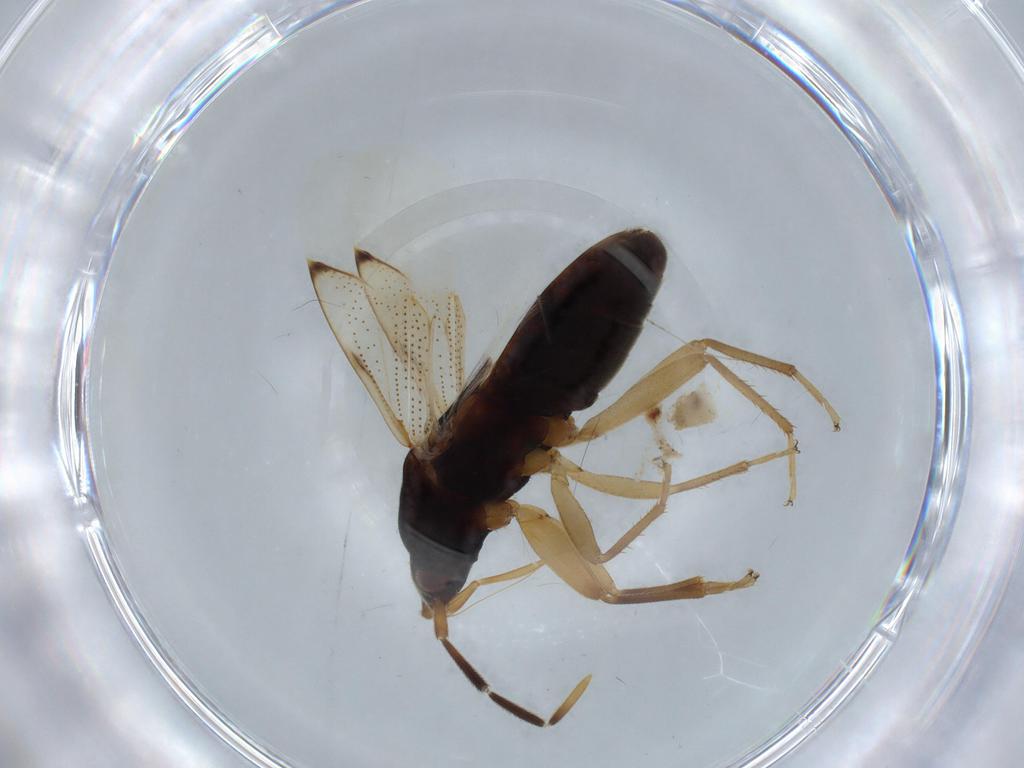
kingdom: Animalia
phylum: Arthropoda
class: Insecta
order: Hemiptera
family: Rhyparochromidae
